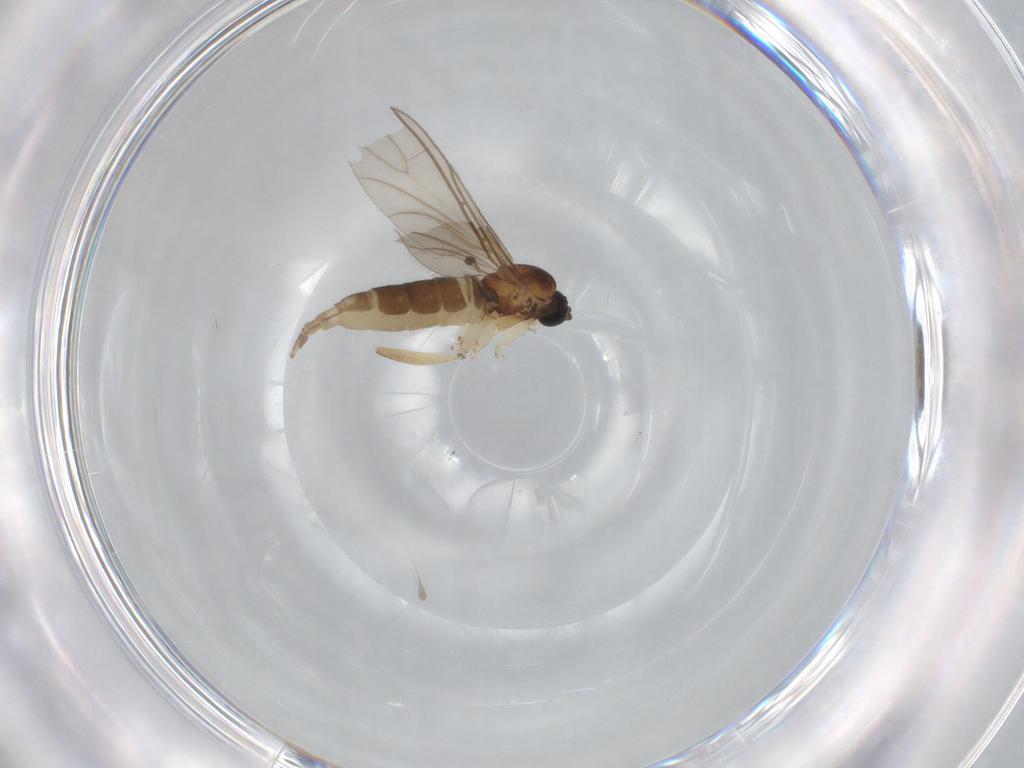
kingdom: Animalia
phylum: Arthropoda
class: Insecta
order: Diptera
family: Sciaridae
